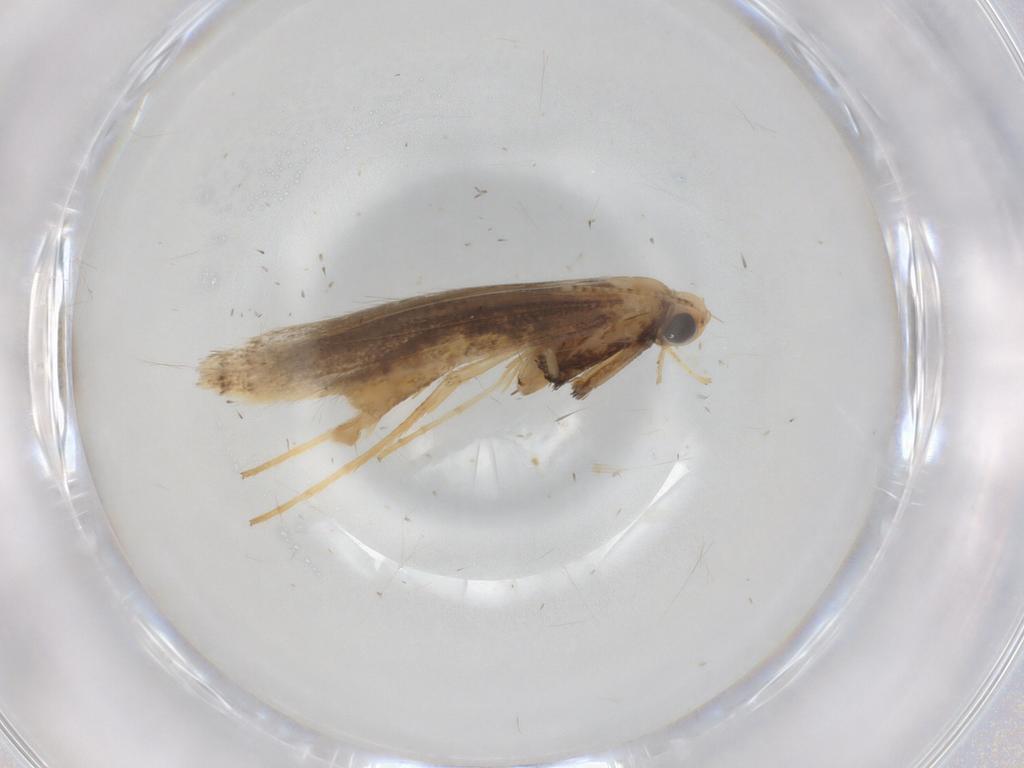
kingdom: Animalia
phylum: Arthropoda
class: Insecta
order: Lepidoptera
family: Gracillariidae
